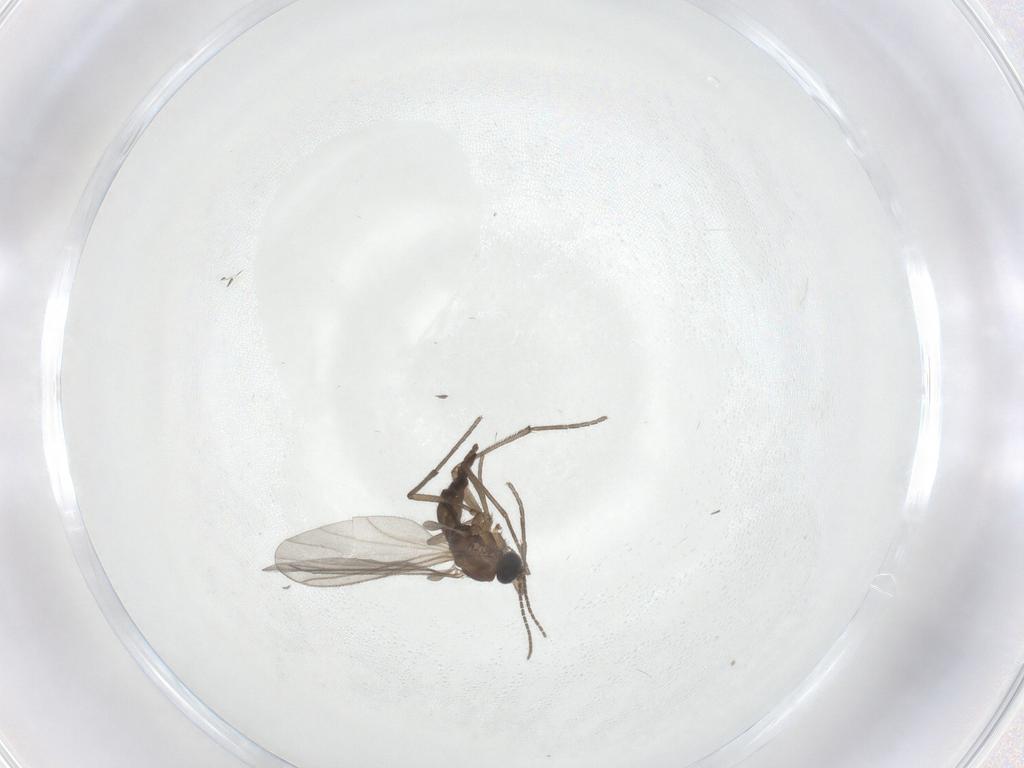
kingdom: Animalia
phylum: Arthropoda
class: Insecta
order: Diptera
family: Sciaridae
